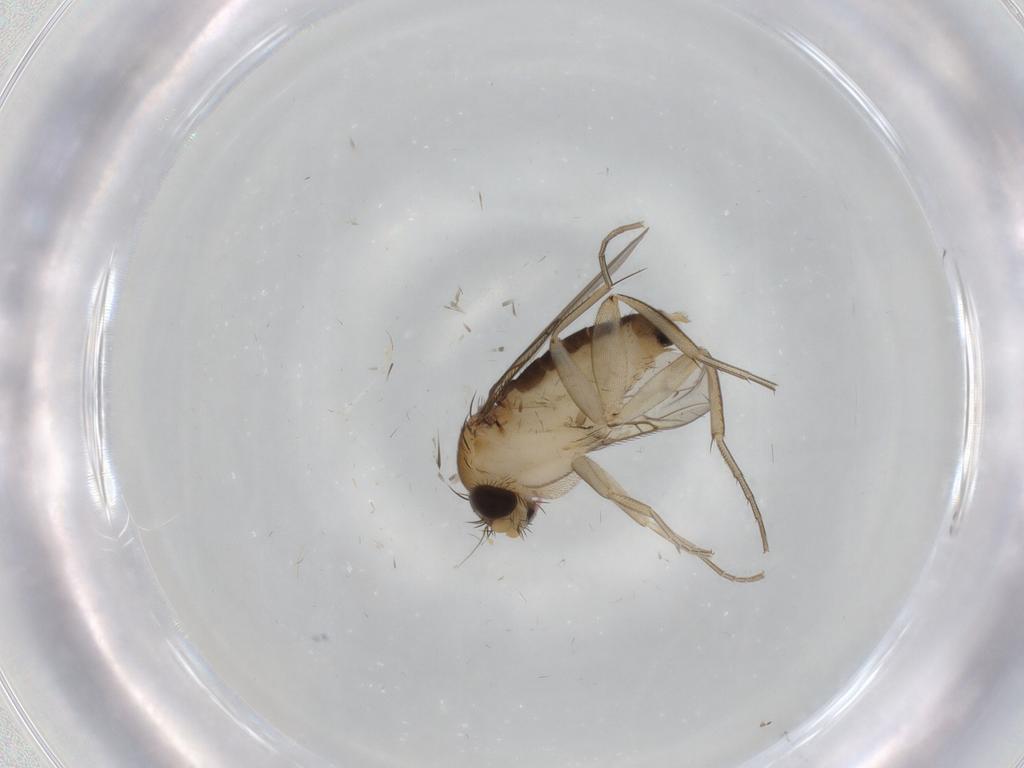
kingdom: Animalia
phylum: Arthropoda
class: Insecta
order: Diptera
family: Phoridae
